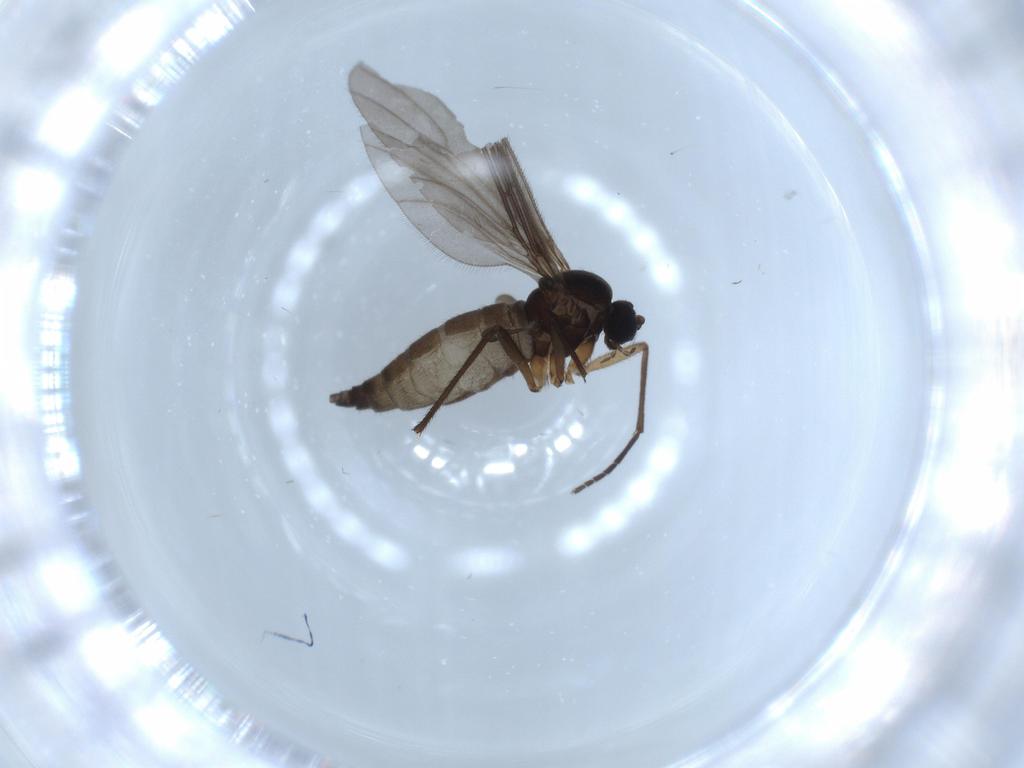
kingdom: Animalia
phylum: Arthropoda
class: Insecta
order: Diptera
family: Sciaridae
